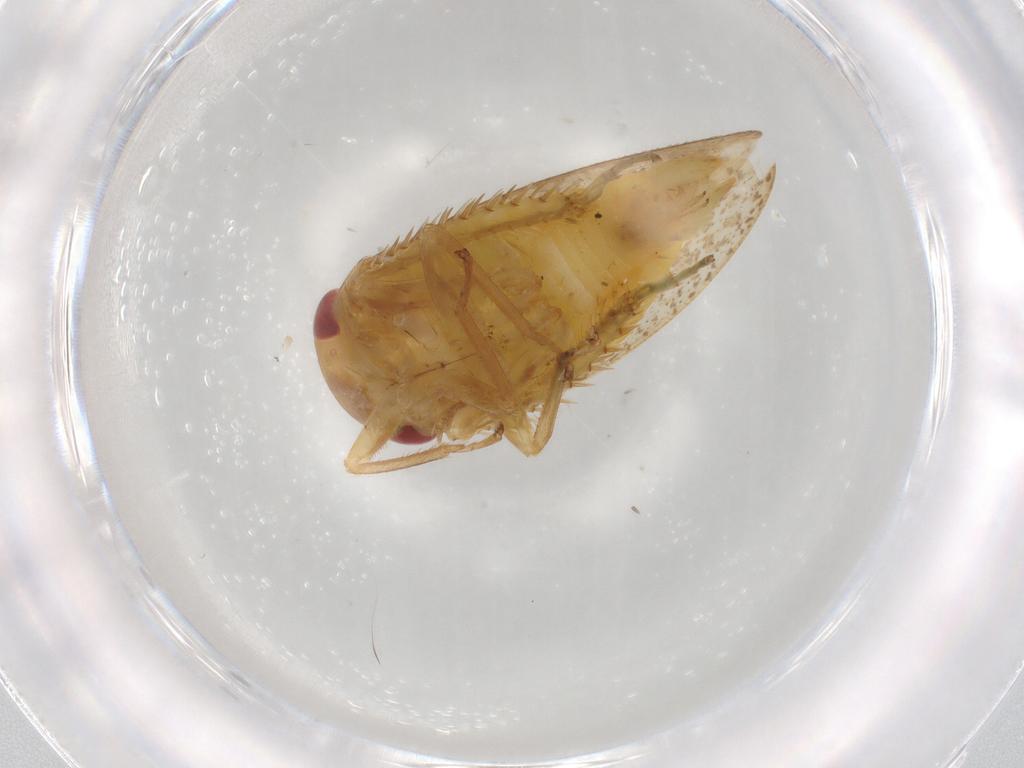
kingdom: Animalia
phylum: Arthropoda
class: Insecta
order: Hemiptera
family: Cicadellidae
